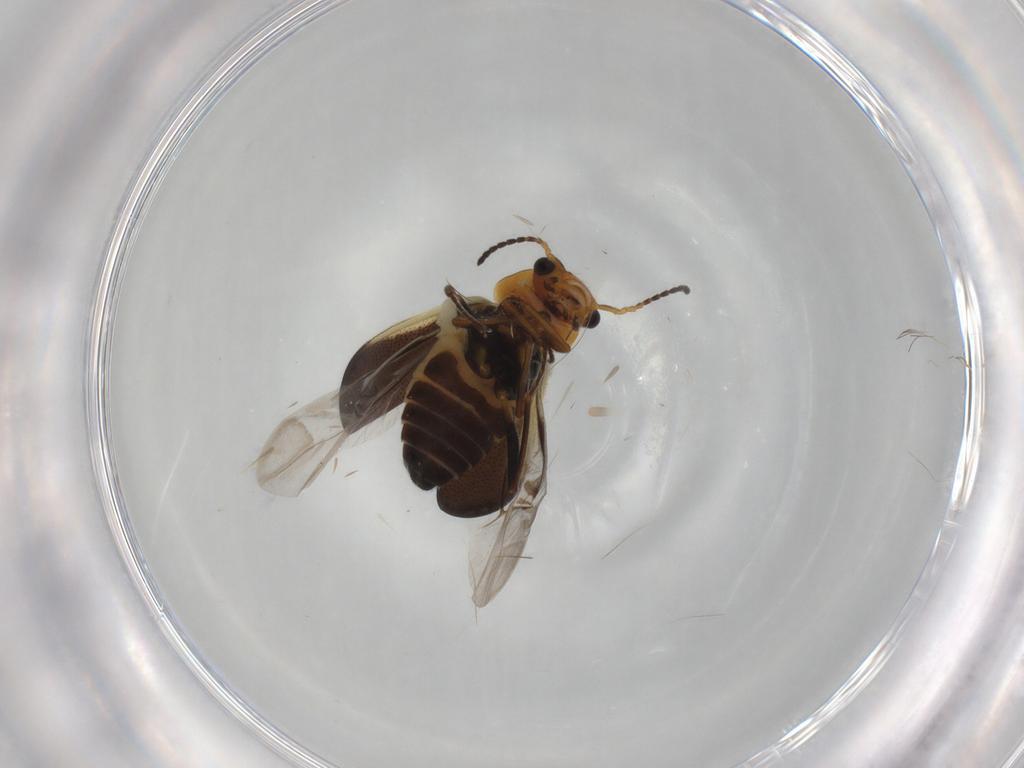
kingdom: Animalia
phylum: Arthropoda
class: Insecta
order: Coleoptera
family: Melyridae
